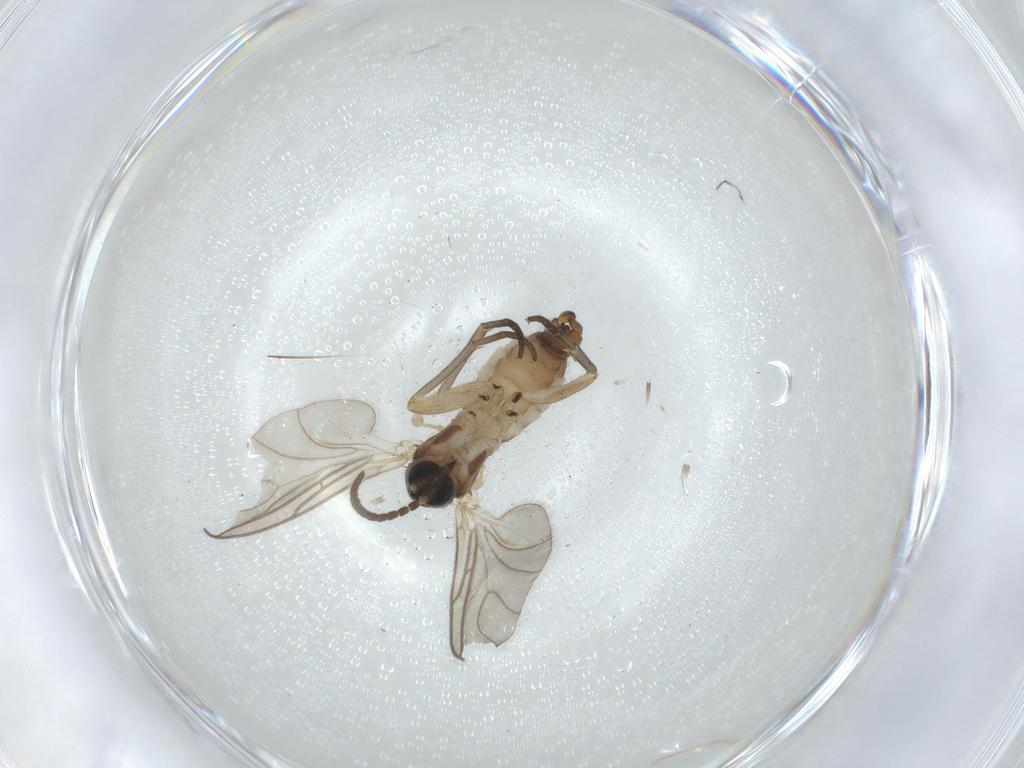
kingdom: Animalia
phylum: Arthropoda
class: Insecta
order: Diptera
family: Sciaridae
